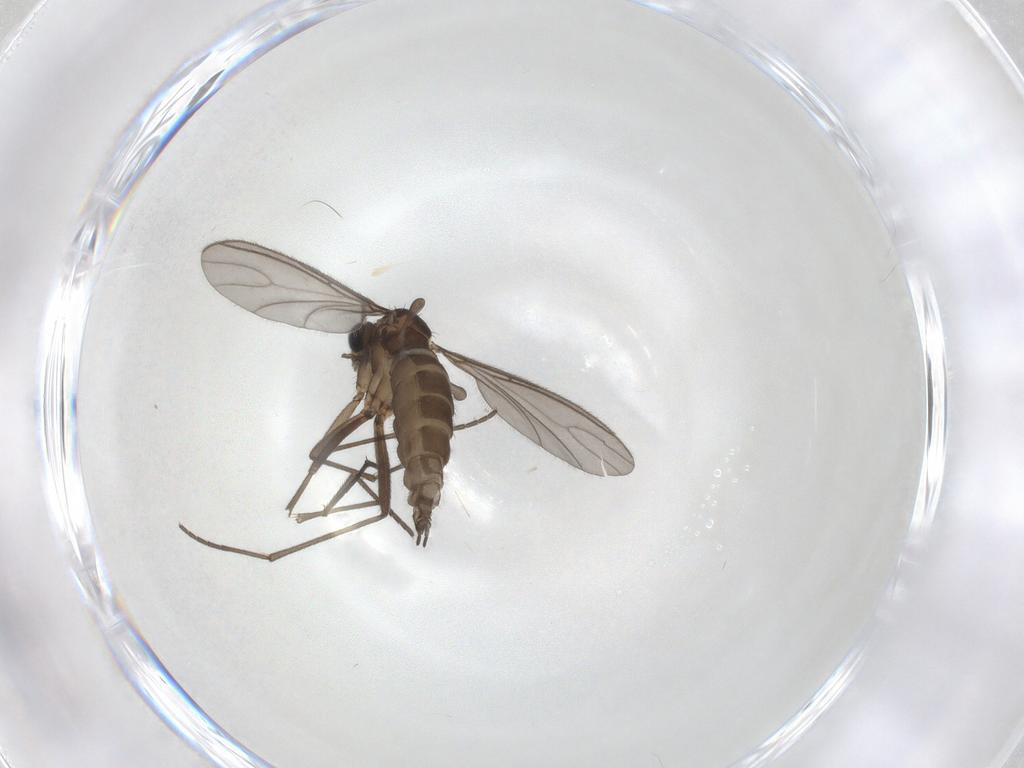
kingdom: Animalia
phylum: Arthropoda
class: Insecta
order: Diptera
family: Sciaridae
